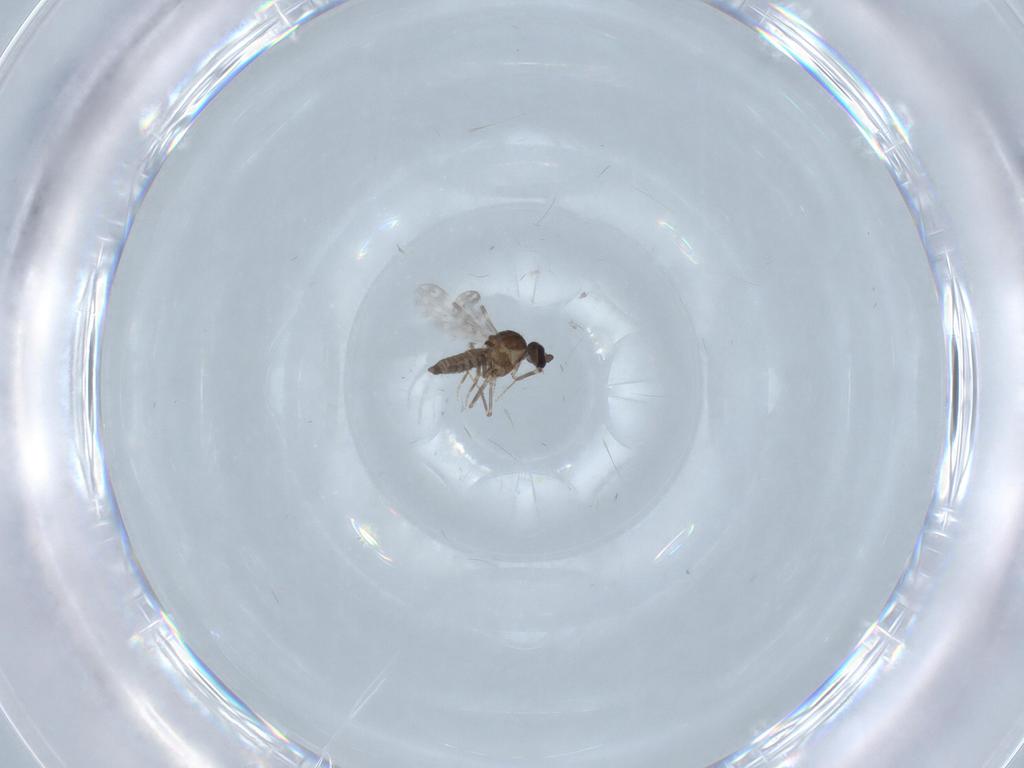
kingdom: Animalia
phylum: Arthropoda
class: Insecta
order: Diptera
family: Ceratopogonidae
